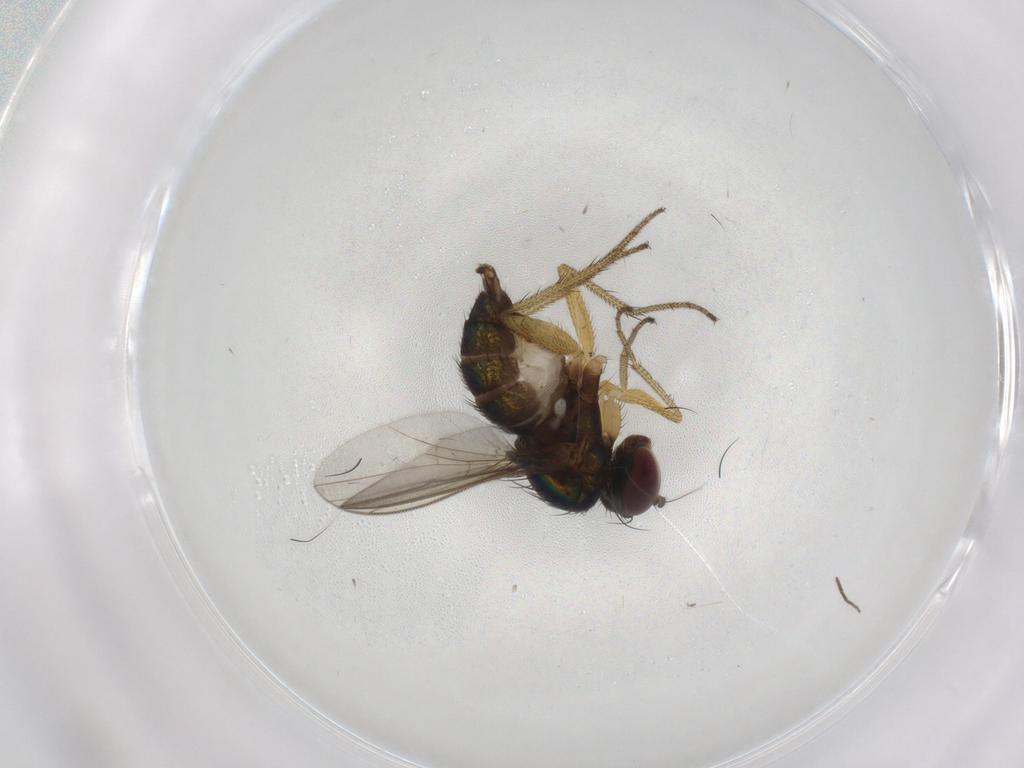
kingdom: Animalia
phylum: Arthropoda
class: Insecta
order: Diptera
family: Dolichopodidae
